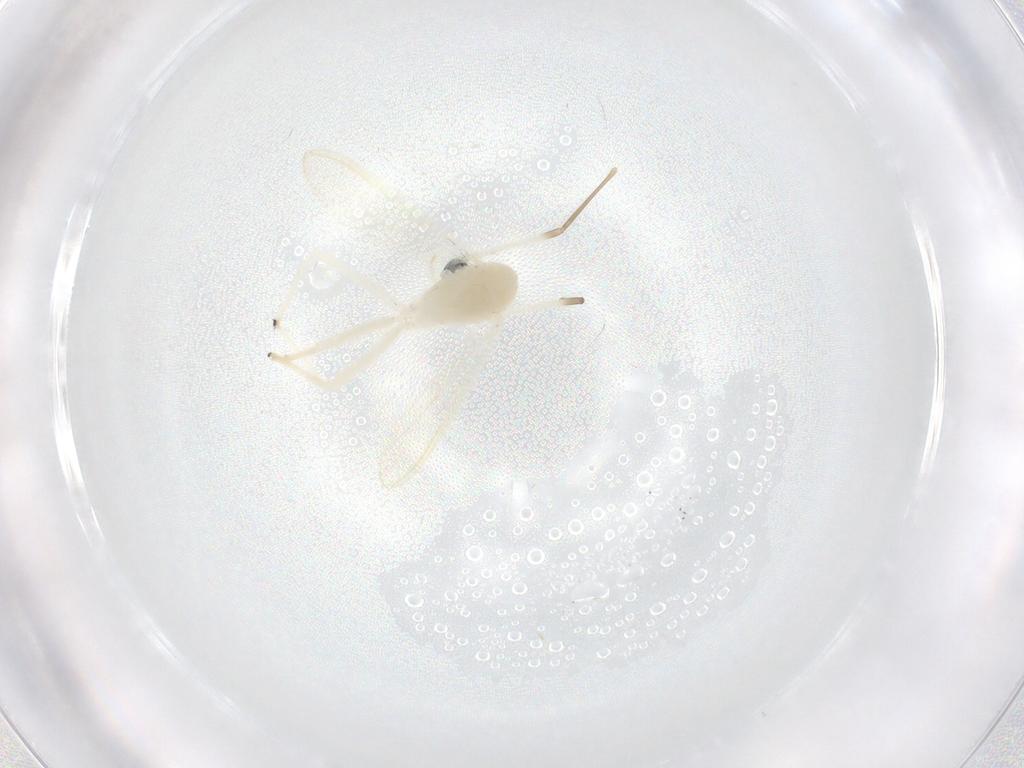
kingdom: Animalia
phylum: Arthropoda
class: Insecta
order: Diptera
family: Chironomidae
